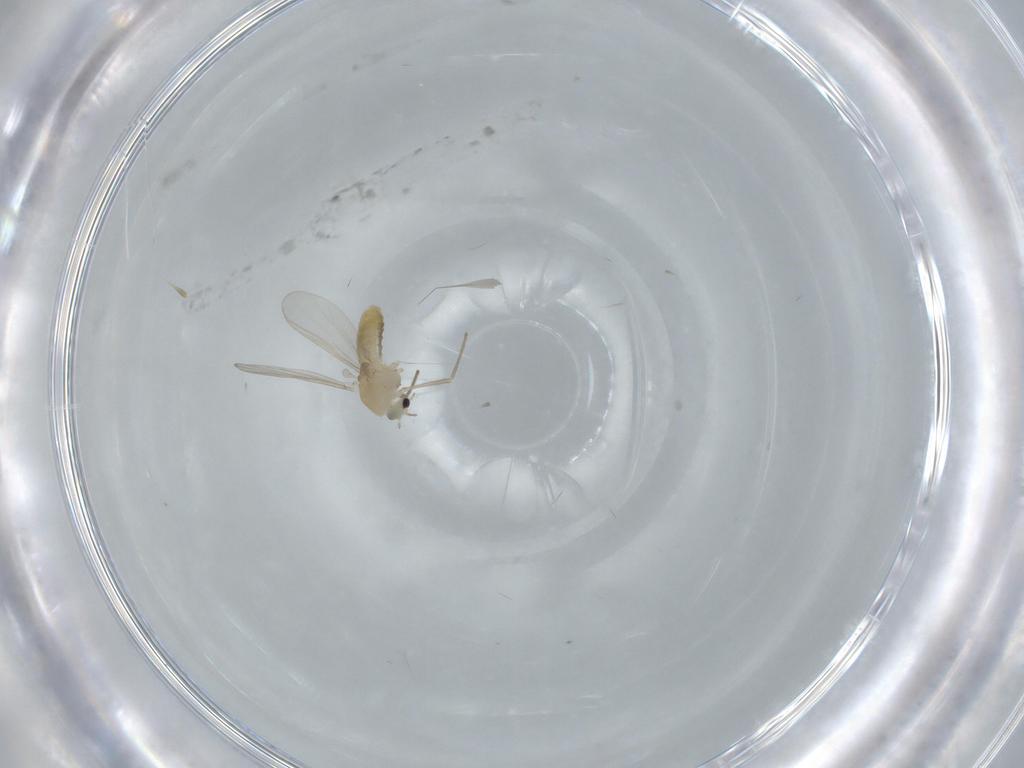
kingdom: Animalia
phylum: Arthropoda
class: Insecta
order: Diptera
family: Chironomidae
